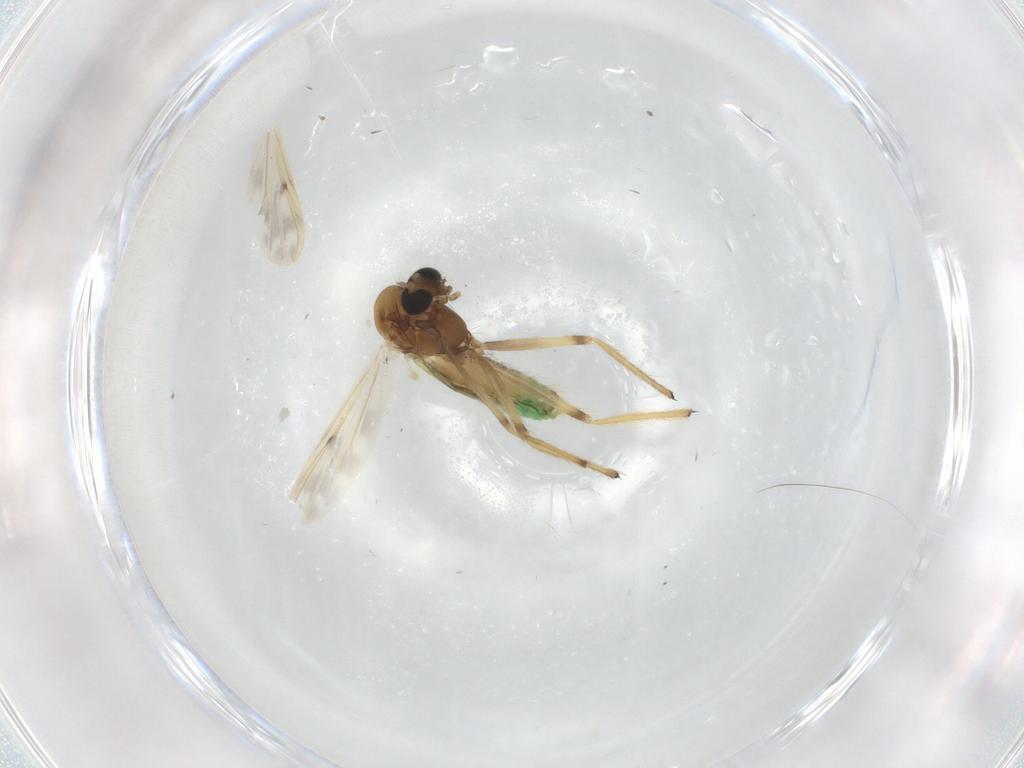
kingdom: Animalia
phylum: Arthropoda
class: Insecta
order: Diptera
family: Chironomidae
